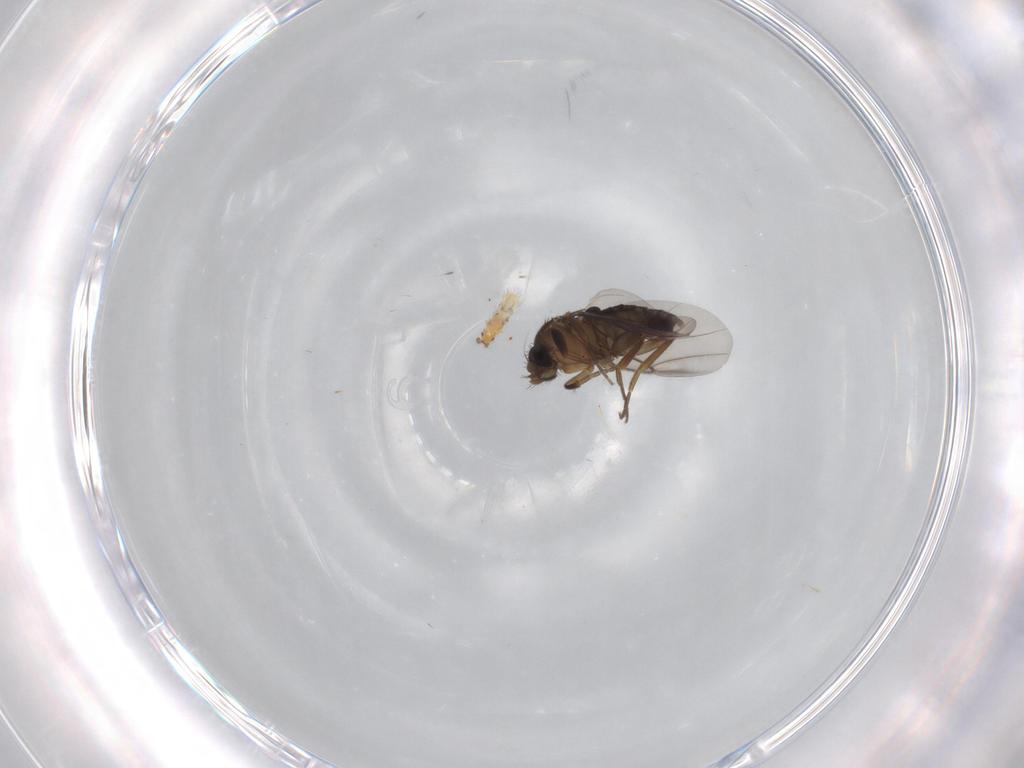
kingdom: Animalia
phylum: Arthropoda
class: Insecta
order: Diptera
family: Phoridae
